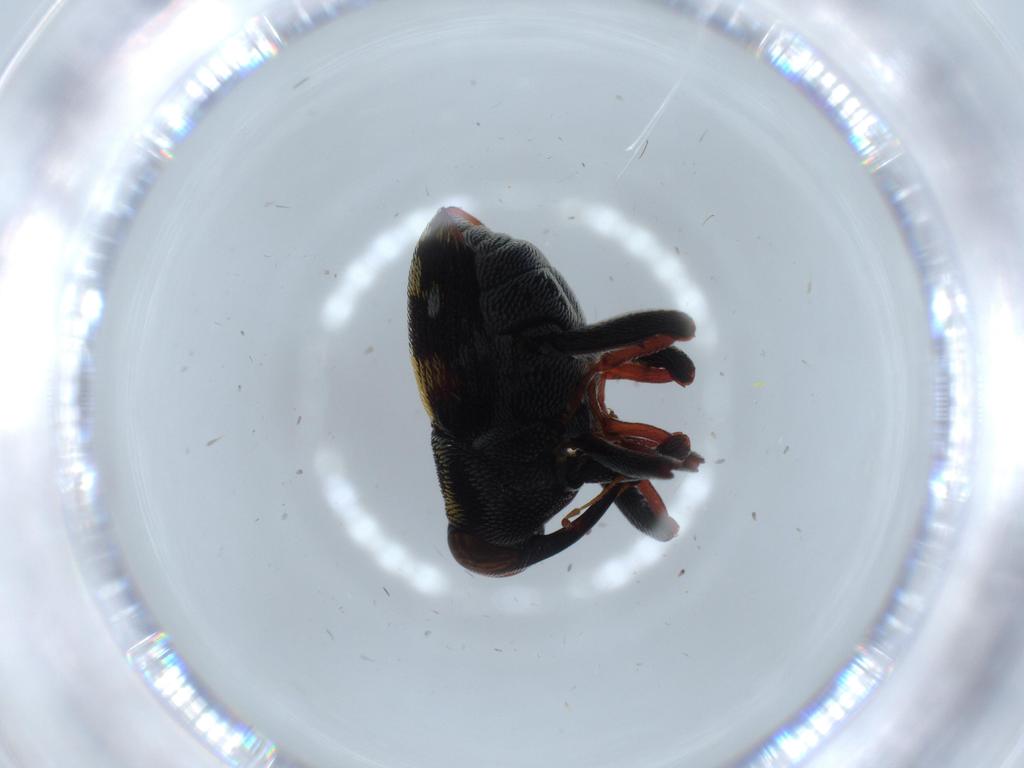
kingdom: Animalia
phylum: Arthropoda
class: Insecta
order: Coleoptera
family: Curculionidae
